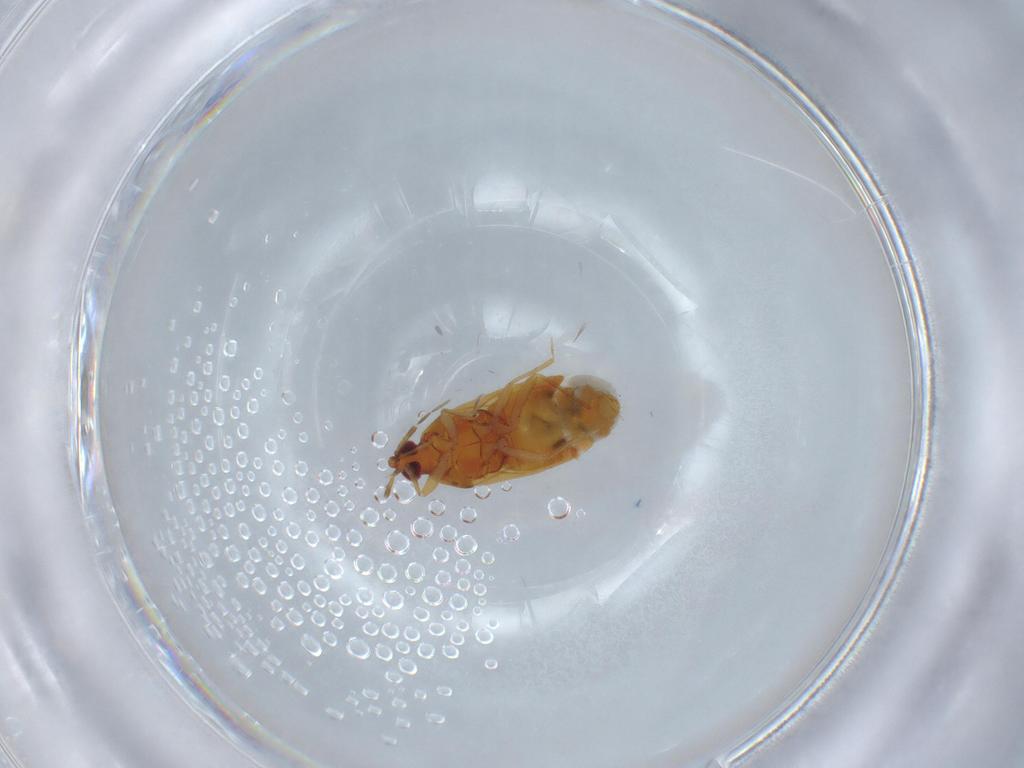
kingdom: Animalia
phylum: Arthropoda
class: Insecta
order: Hemiptera
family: Anthocoridae
